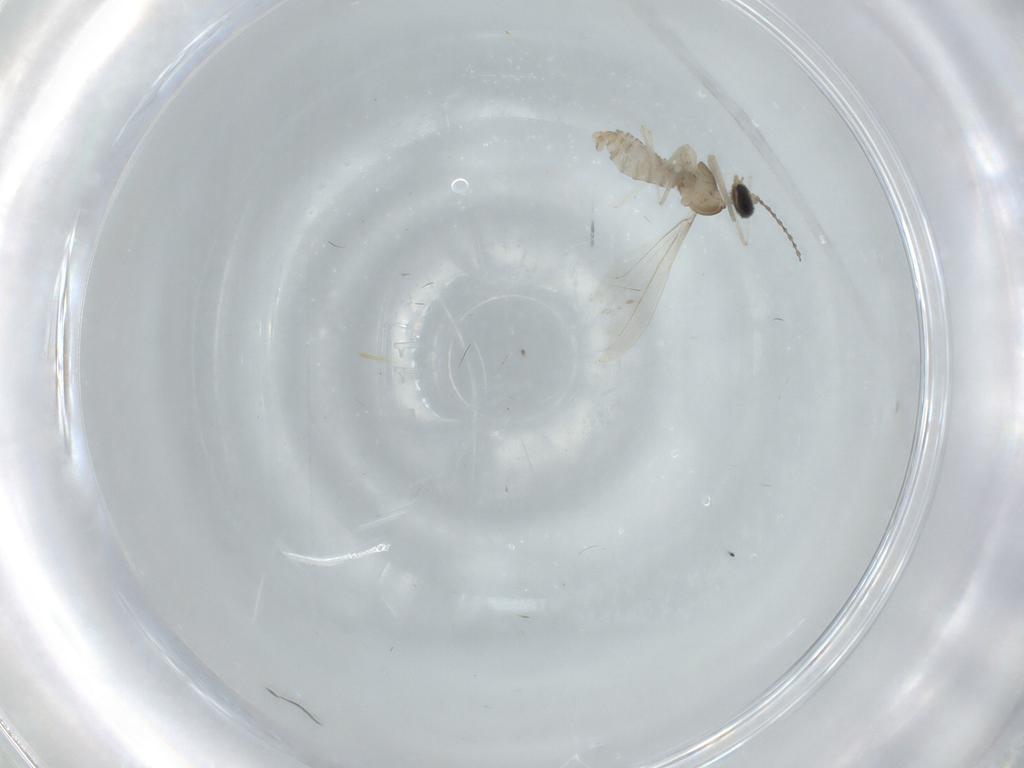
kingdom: Animalia
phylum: Arthropoda
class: Insecta
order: Diptera
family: Cecidomyiidae
